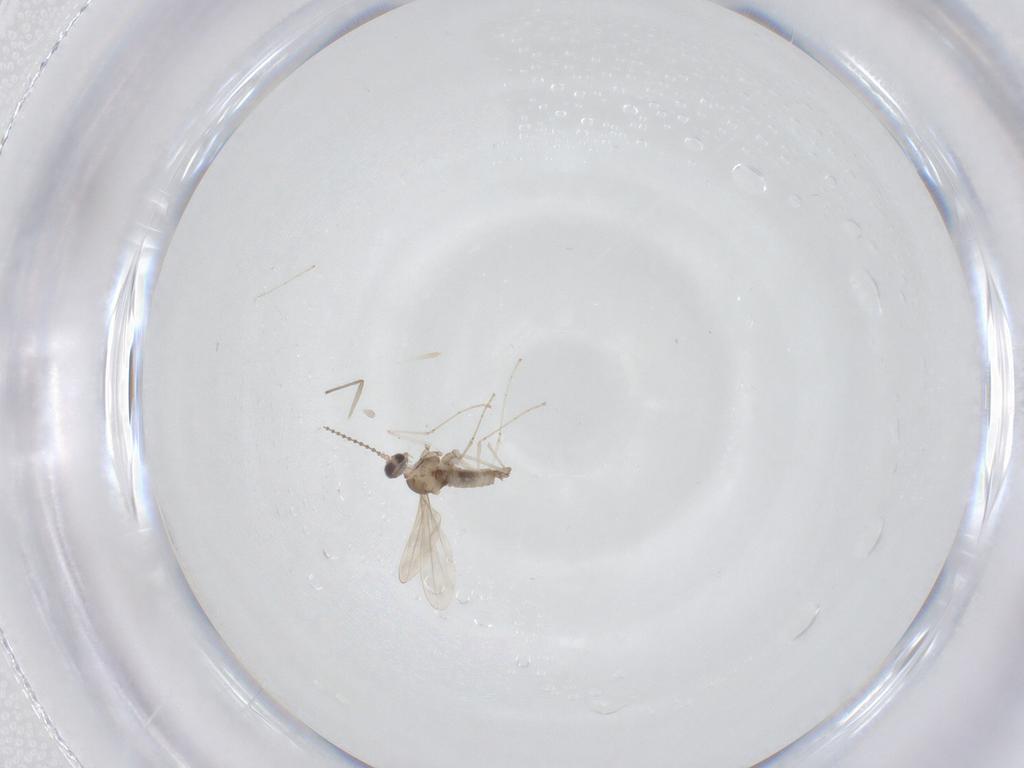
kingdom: Animalia
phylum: Arthropoda
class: Insecta
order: Diptera
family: Chironomidae
